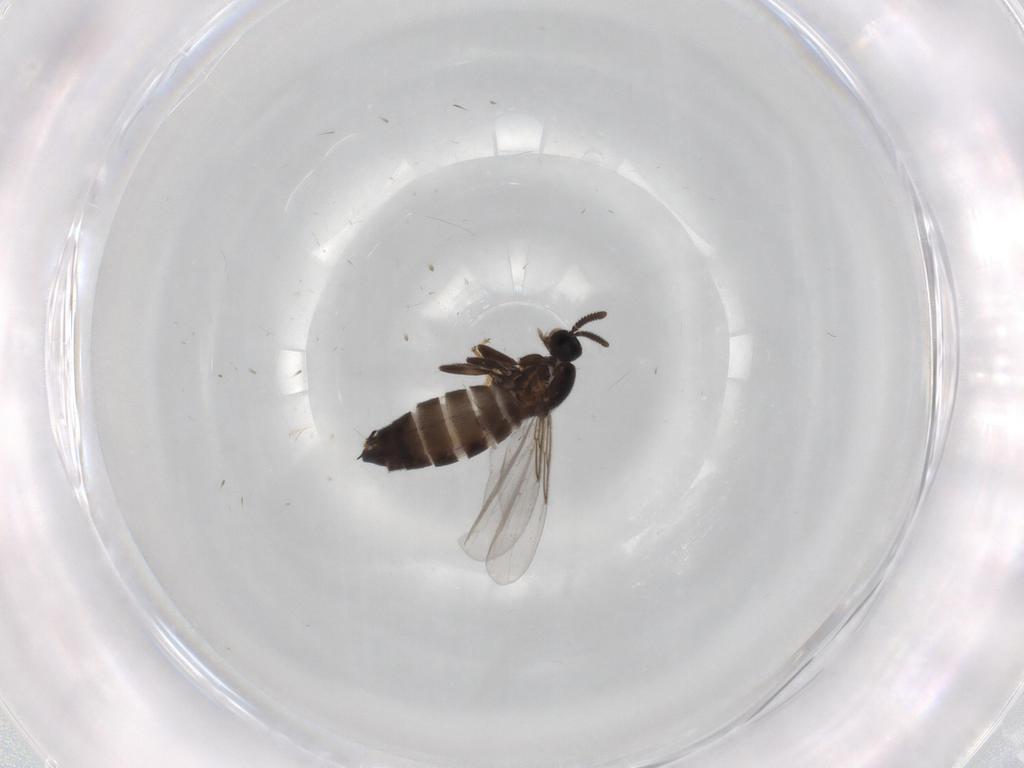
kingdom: Animalia
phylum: Arthropoda
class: Insecta
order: Diptera
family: Scatopsidae
